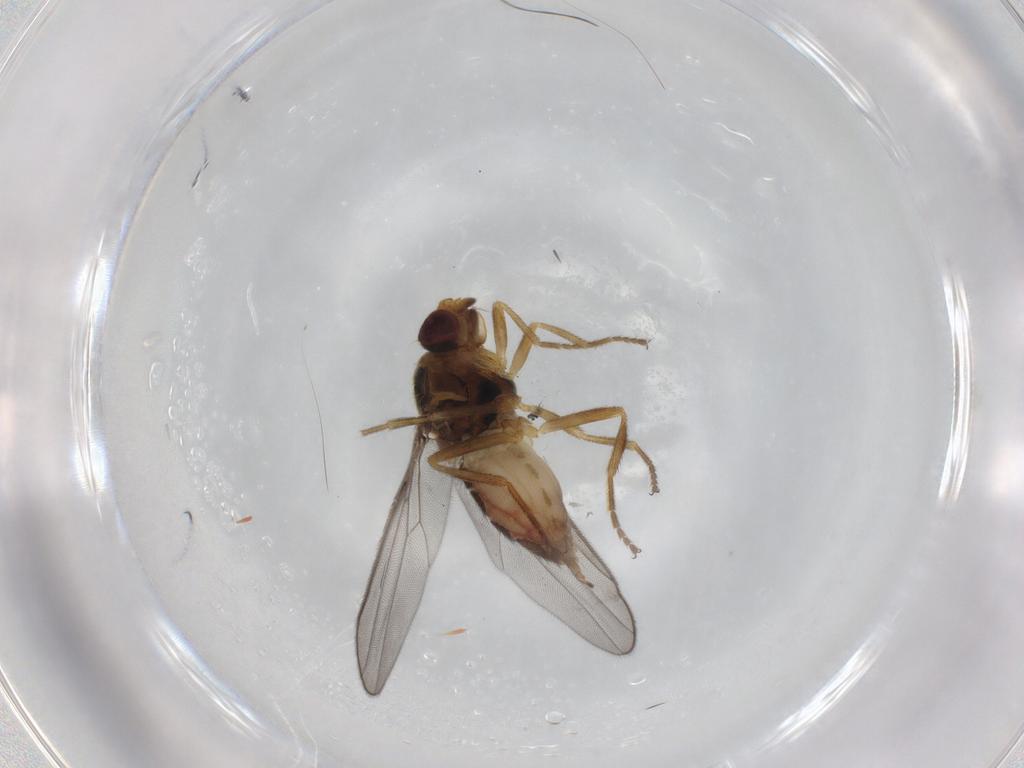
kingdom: Animalia
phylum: Arthropoda
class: Insecta
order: Diptera
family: Chloropidae
